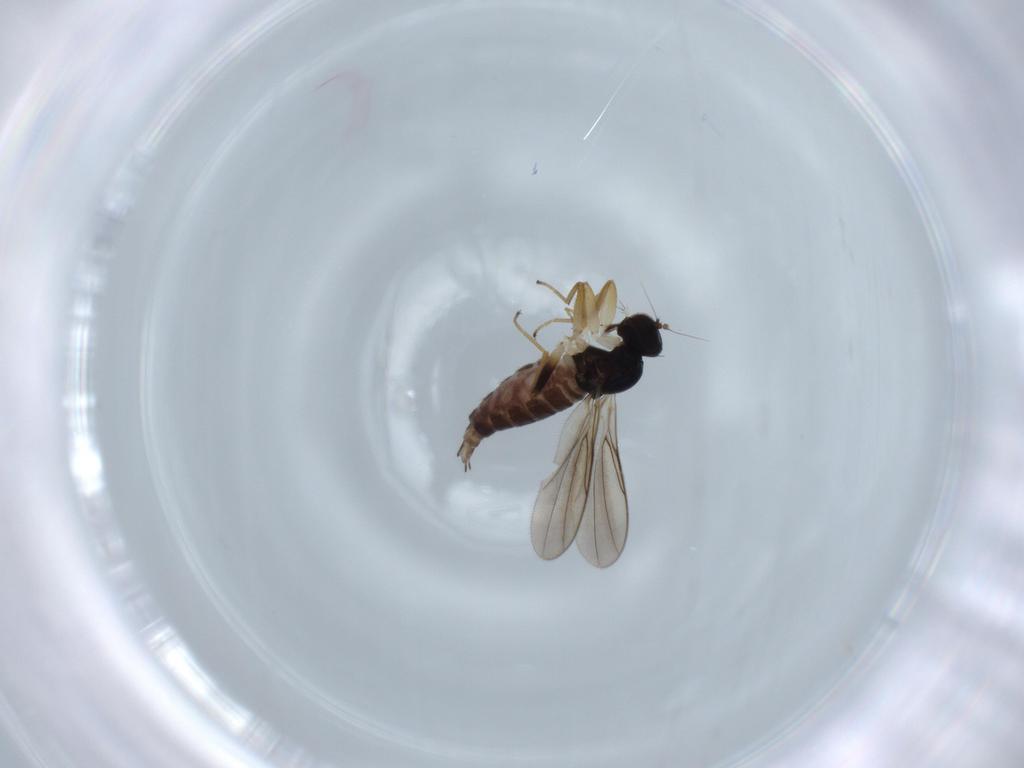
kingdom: Animalia
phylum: Arthropoda
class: Insecta
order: Diptera
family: Hybotidae
